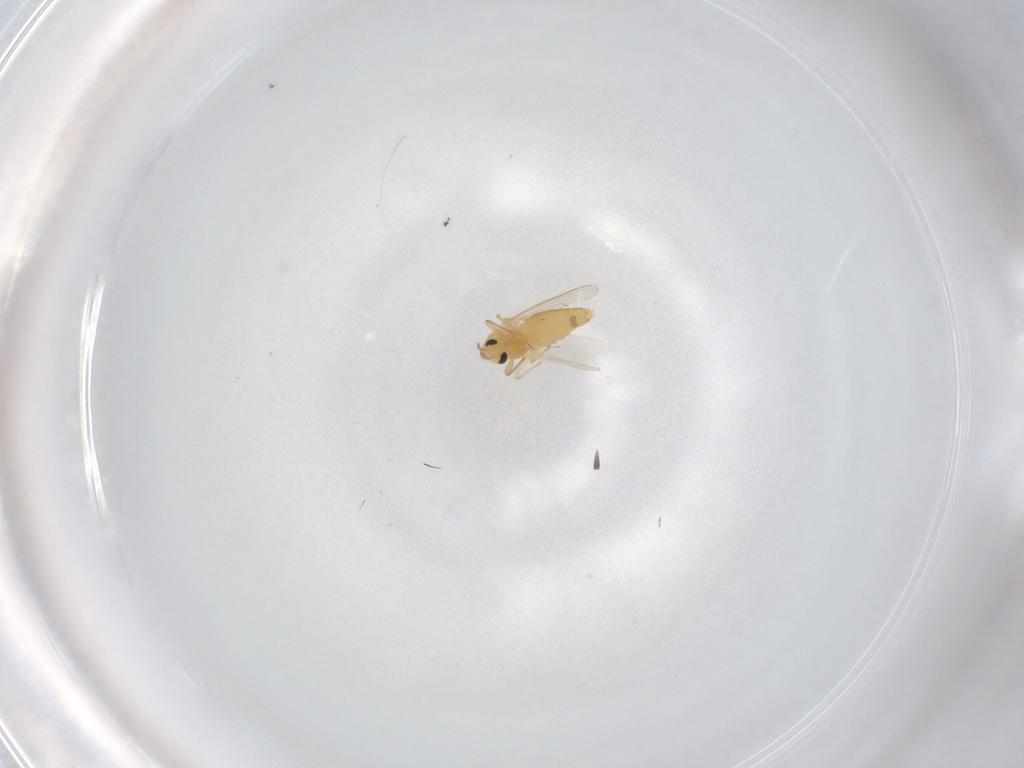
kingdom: Animalia
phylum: Arthropoda
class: Insecta
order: Diptera
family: Chironomidae
